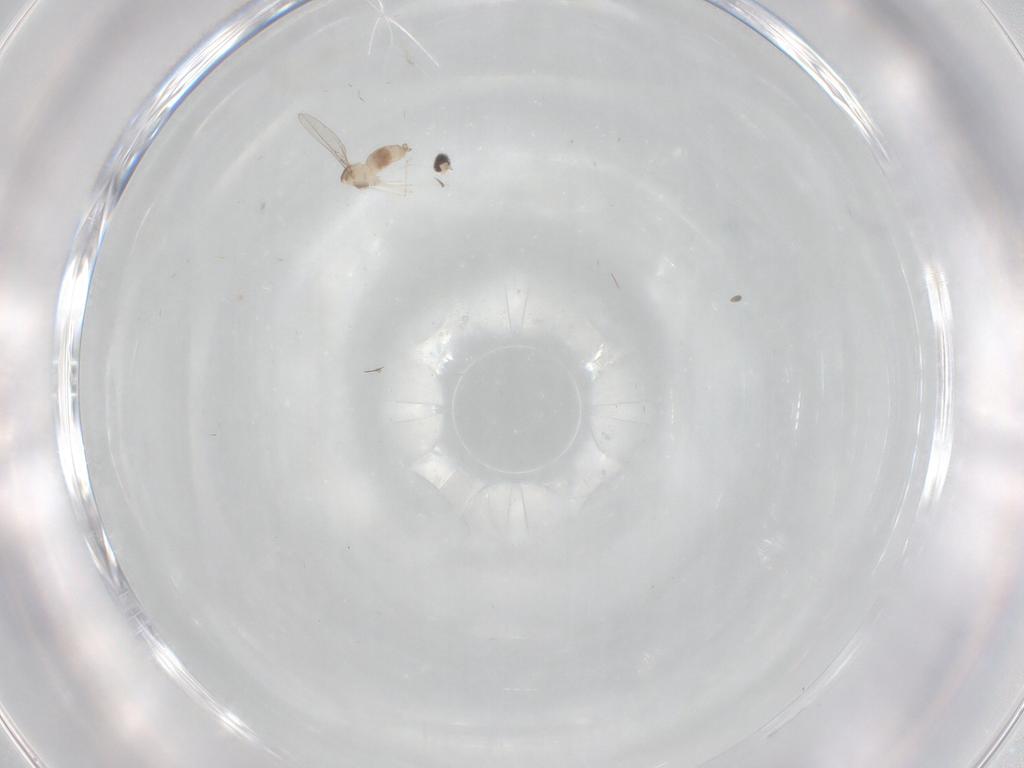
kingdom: Animalia
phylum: Arthropoda
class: Insecta
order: Diptera
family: Cecidomyiidae
